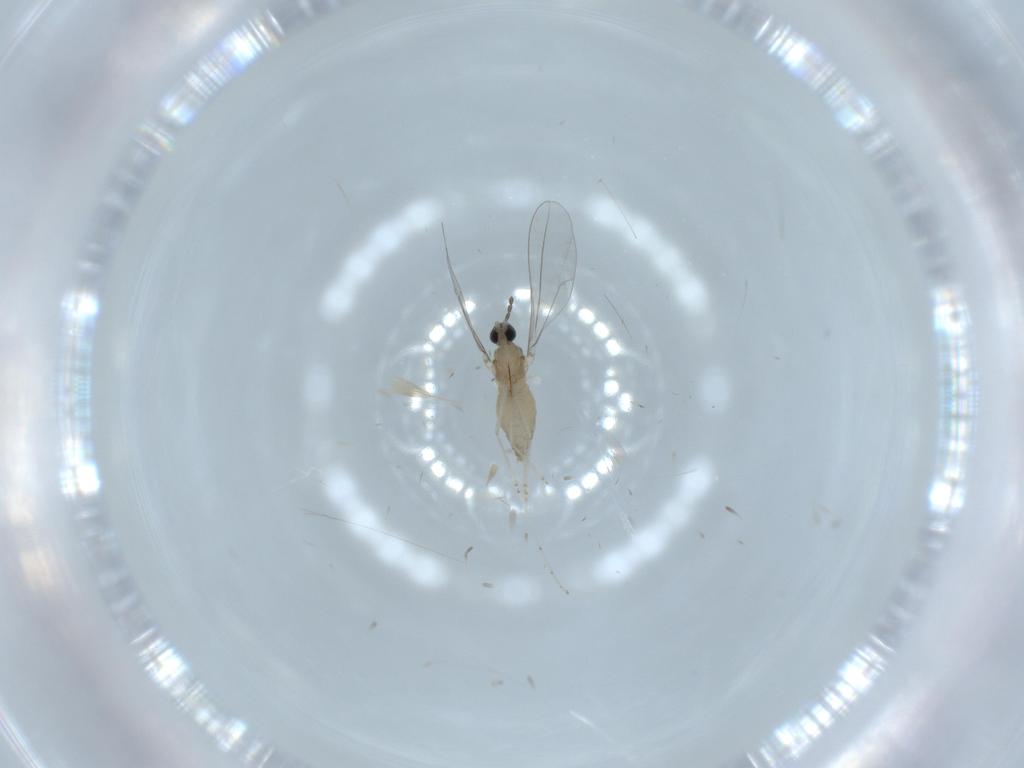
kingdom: Animalia
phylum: Arthropoda
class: Insecta
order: Diptera
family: Cecidomyiidae
